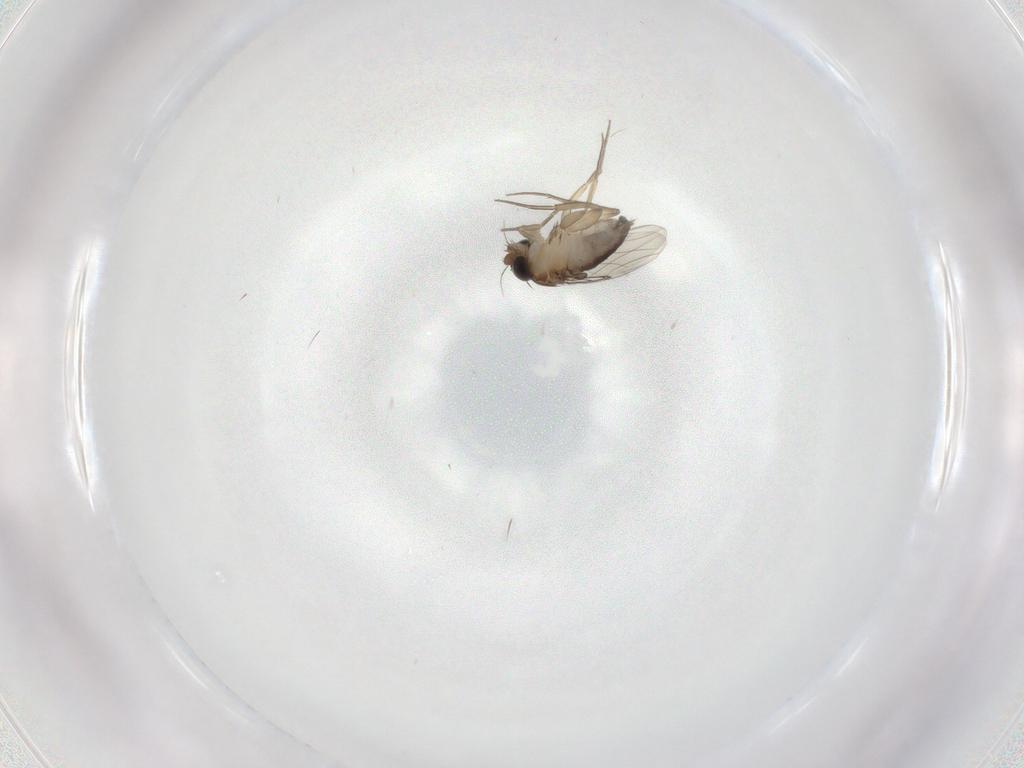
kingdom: Animalia
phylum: Arthropoda
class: Insecta
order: Diptera
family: Phoridae
